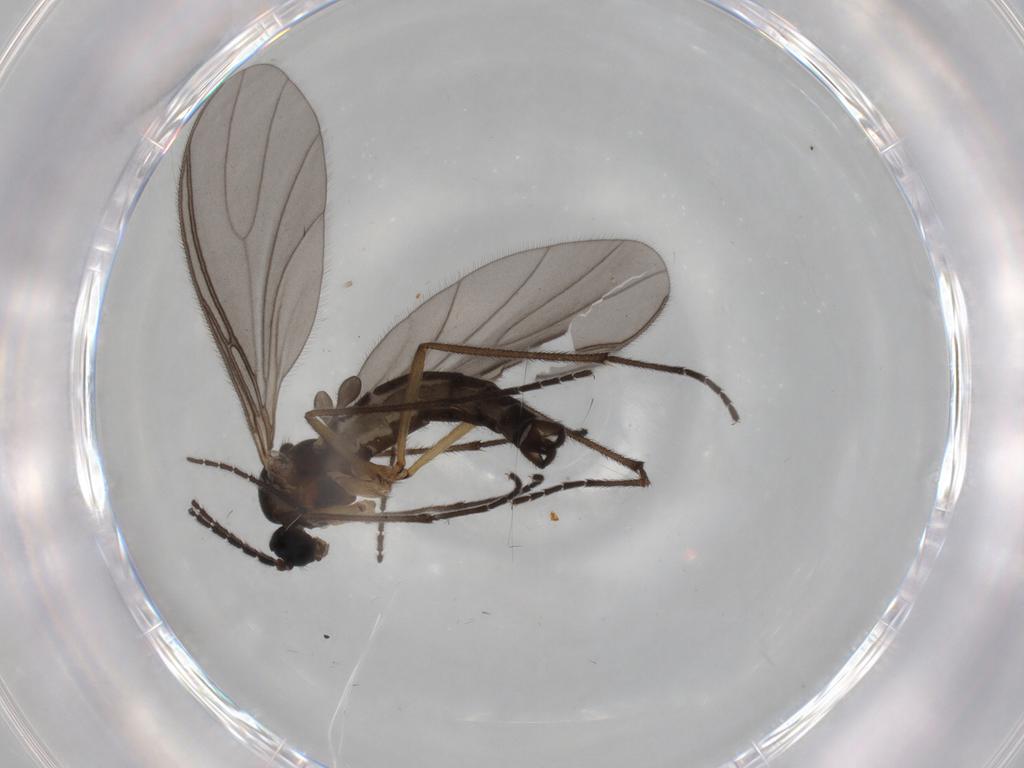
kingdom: Animalia
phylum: Arthropoda
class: Insecta
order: Diptera
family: Sciaridae
